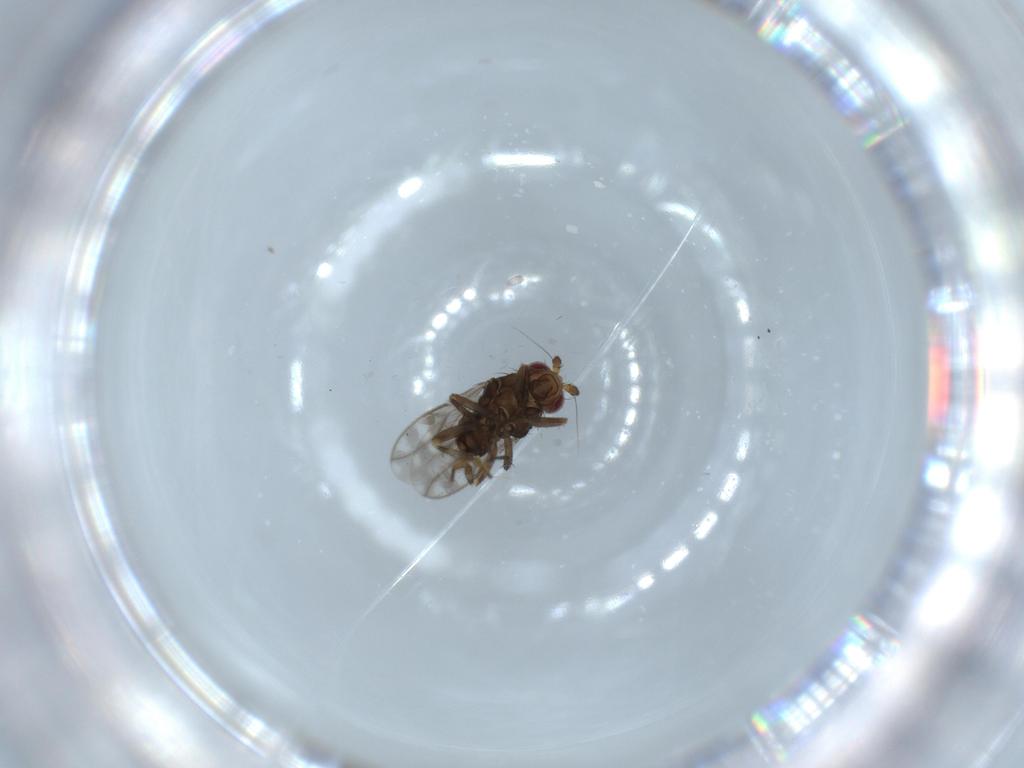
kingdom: Animalia
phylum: Arthropoda
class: Insecta
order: Diptera
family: Sphaeroceridae
